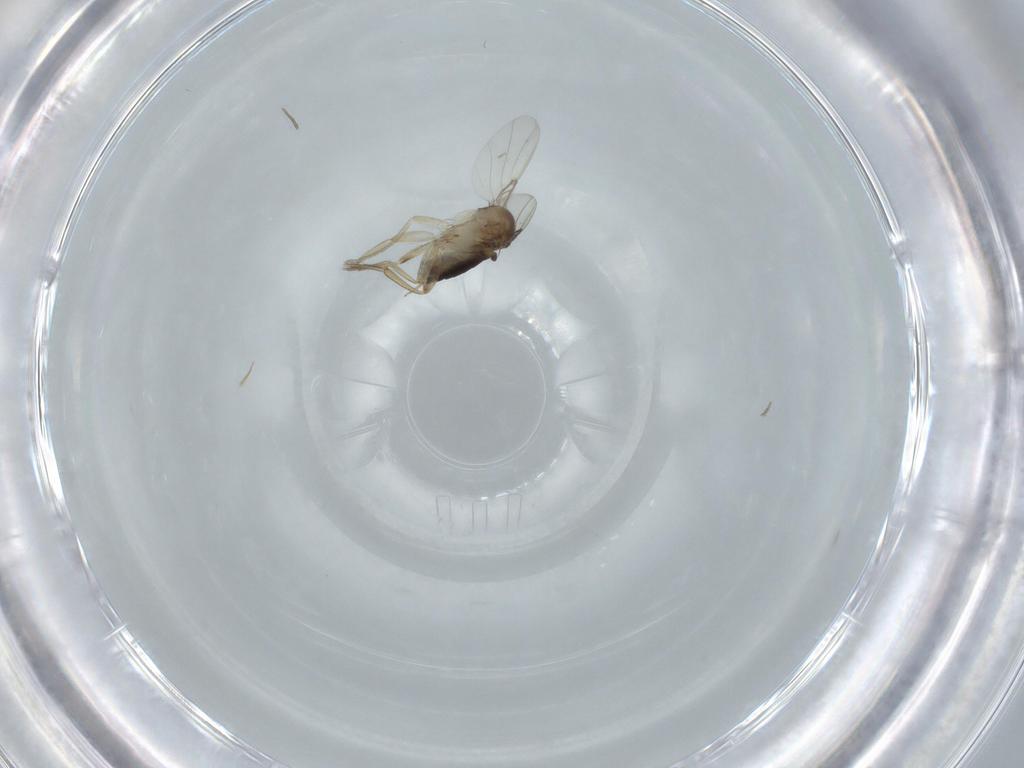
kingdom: Animalia
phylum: Arthropoda
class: Insecta
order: Diptera
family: Phoridae
